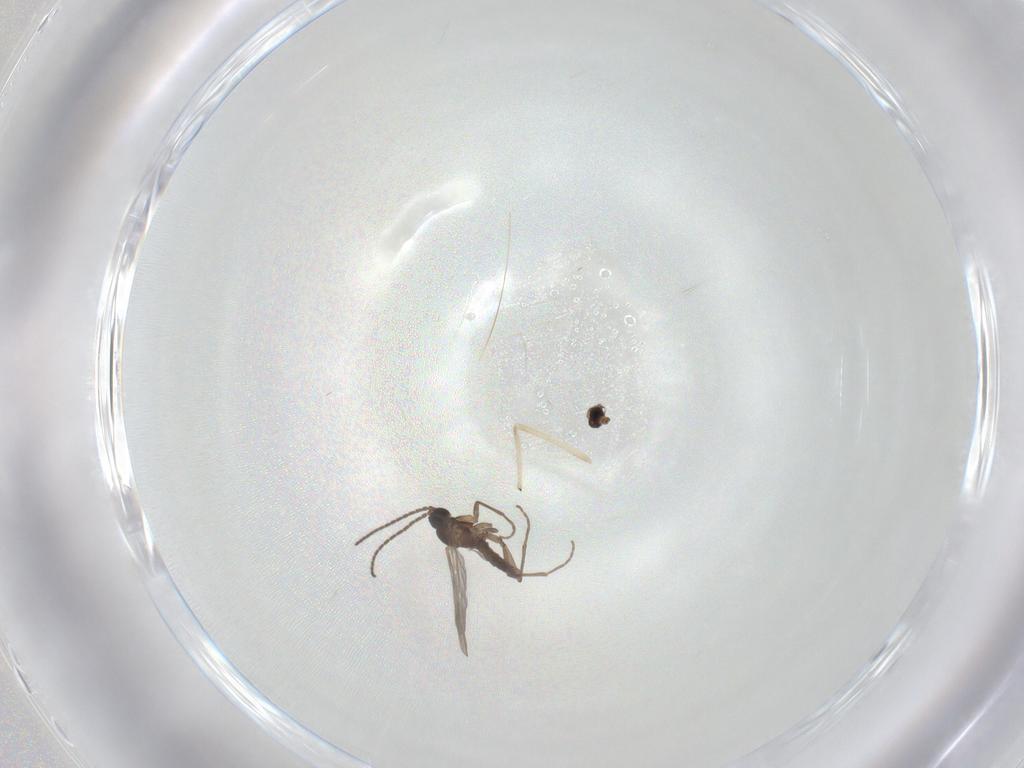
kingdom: Animalia
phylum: Arthropoda
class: Insecta
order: Diptera
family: Sciaridae
